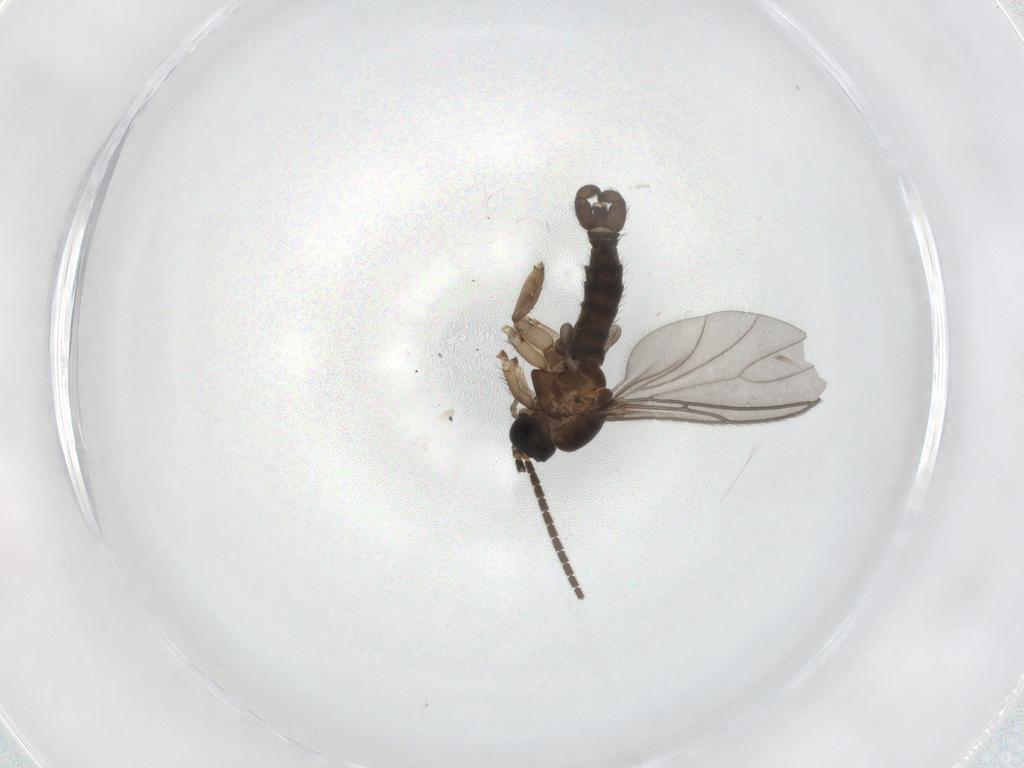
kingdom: Animalia
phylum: Arthropoda
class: Insecta
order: Diptera
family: Sciaridae
